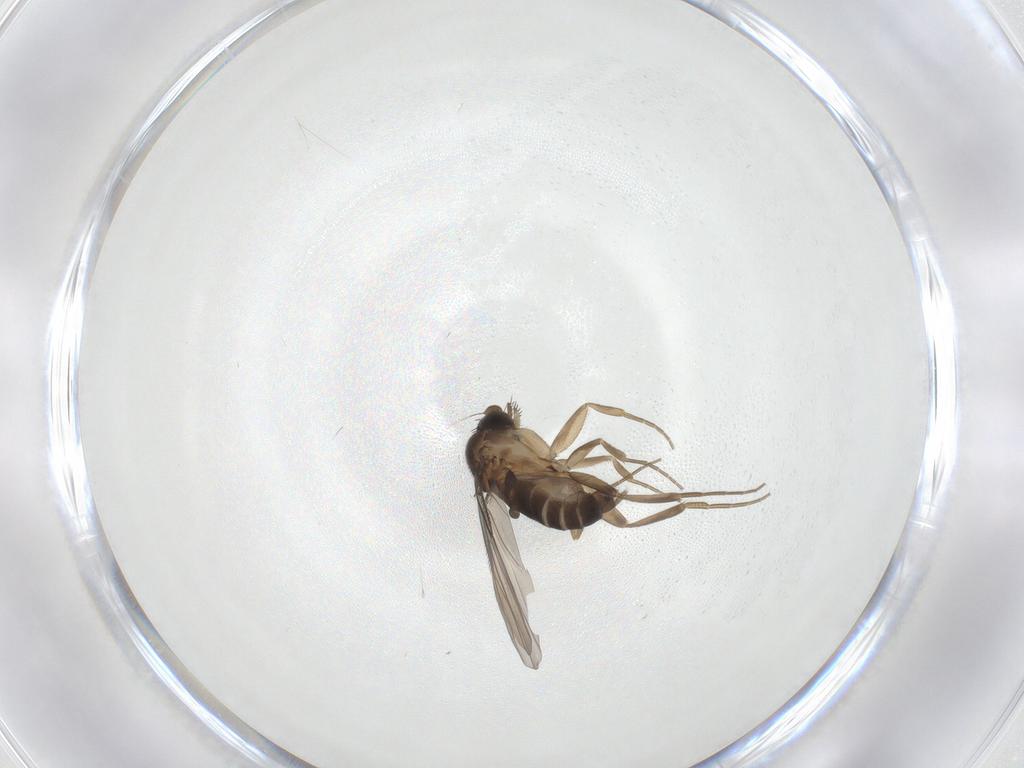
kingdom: Animalia
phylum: Arthropoda
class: Insecta
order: Diptera
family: Phoridae
